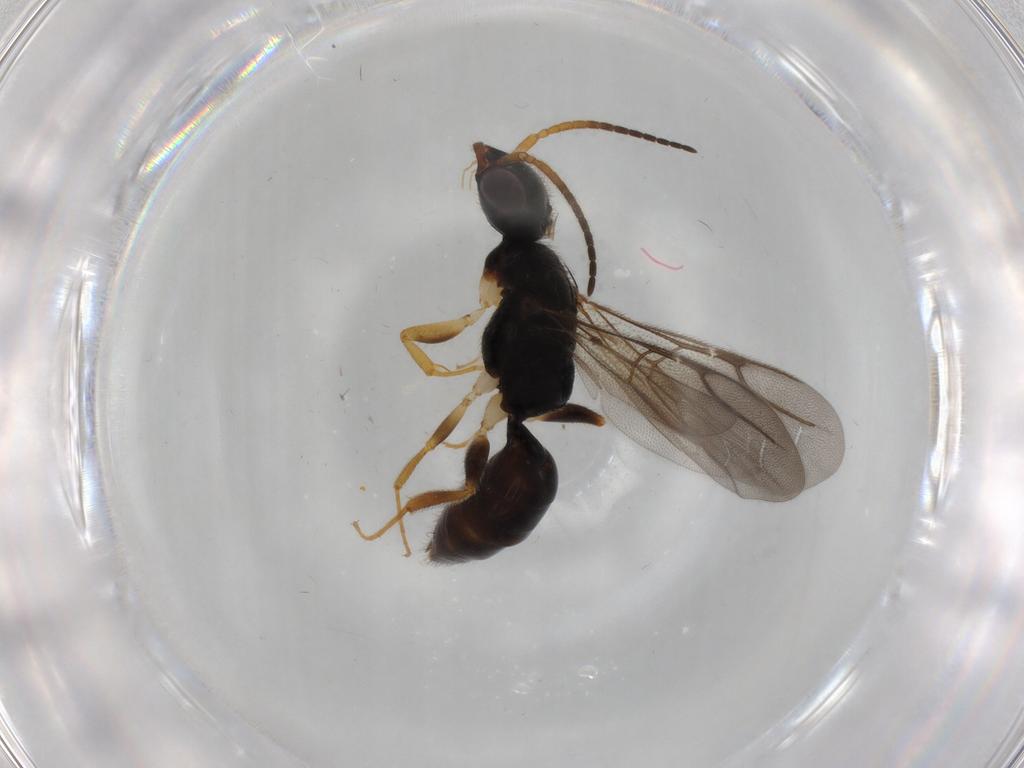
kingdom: Animalia
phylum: Arthropoda
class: Insecta
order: Hymenoptera
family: Bethylidae
